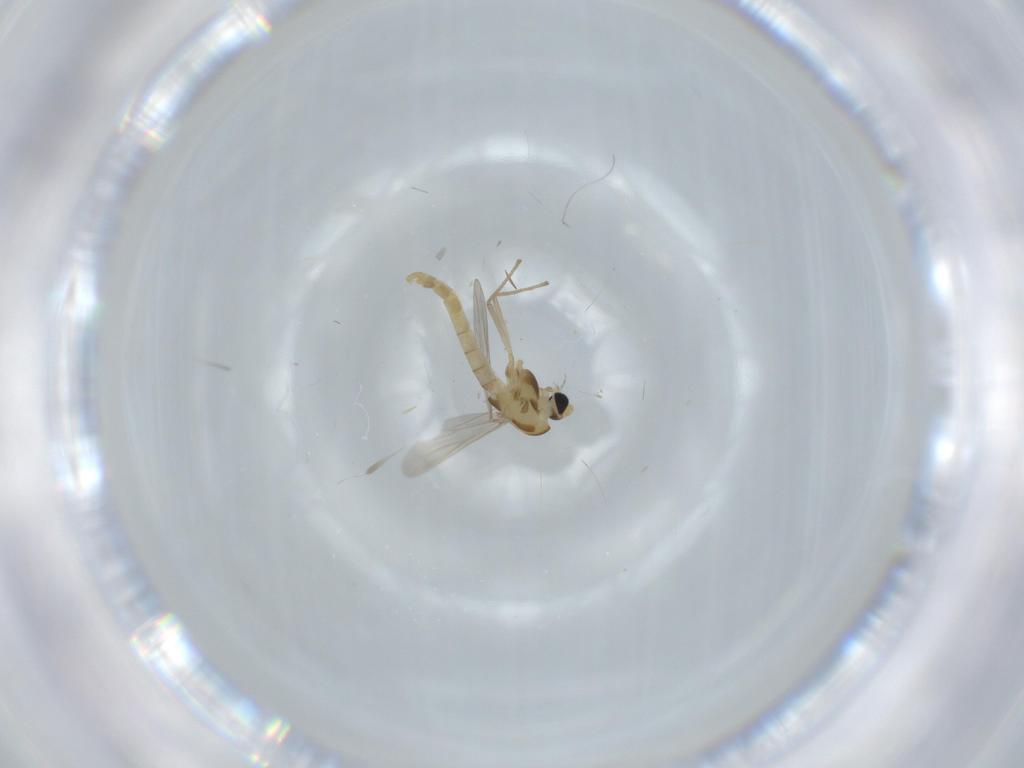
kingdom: Animalia
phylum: Arthropoda
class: Insecta
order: Diptera
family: Chironomidae
